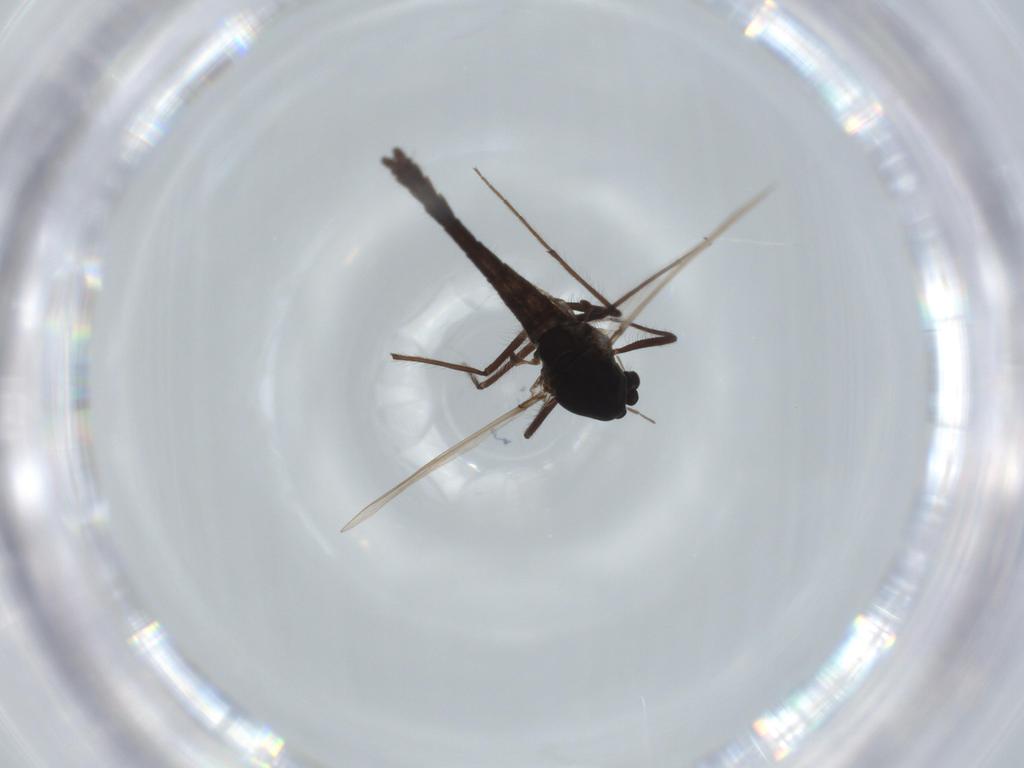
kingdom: Animalia
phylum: Arthropoda
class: Insecta
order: Diptera
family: Sciaridae
